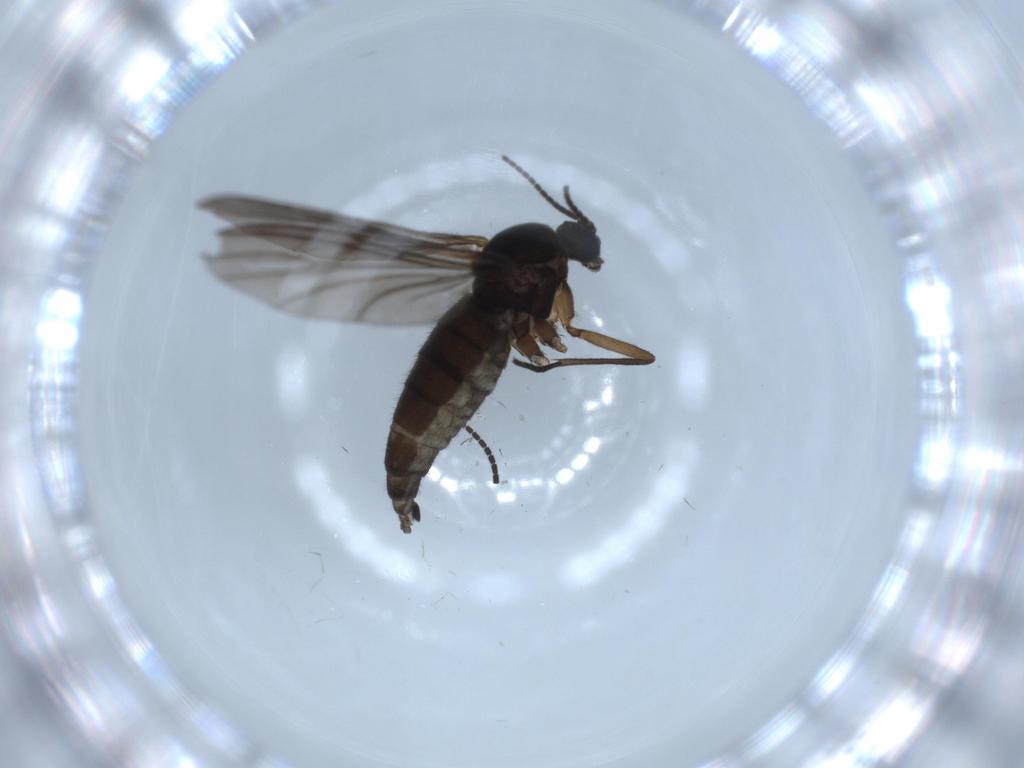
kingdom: Animalia
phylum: Arthropoda
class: Insecta
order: Diptera
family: Sciaridae
